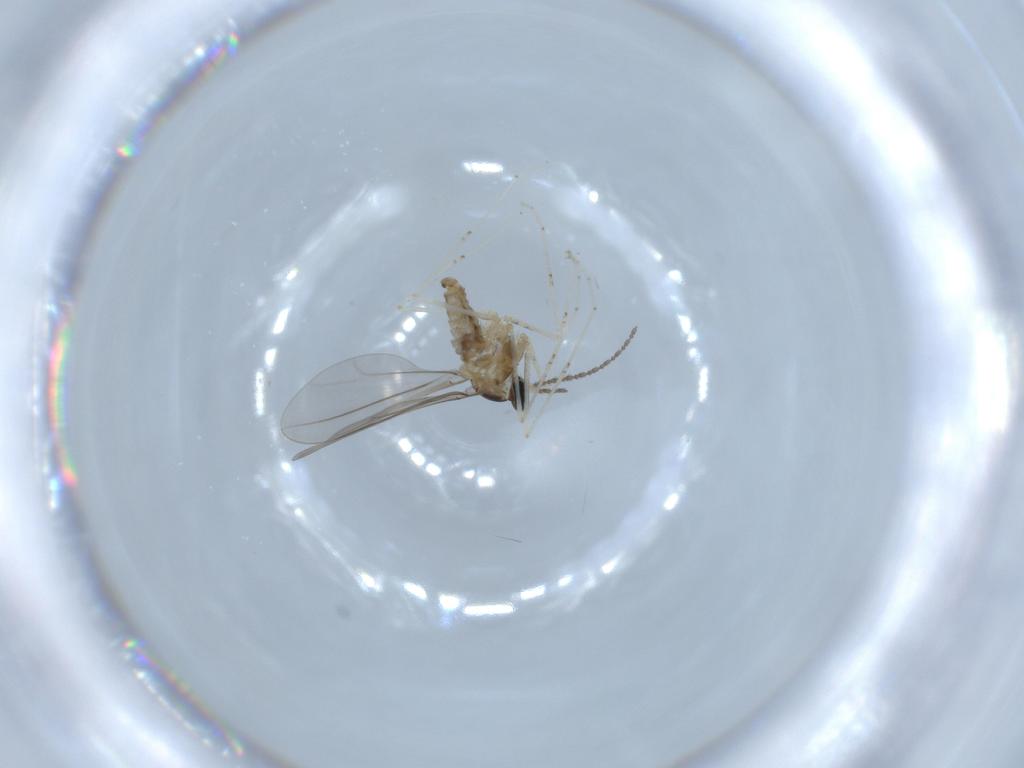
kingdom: Animalia
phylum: Arthropoda
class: Insecta
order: Diptera
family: Cecidomyiidae
